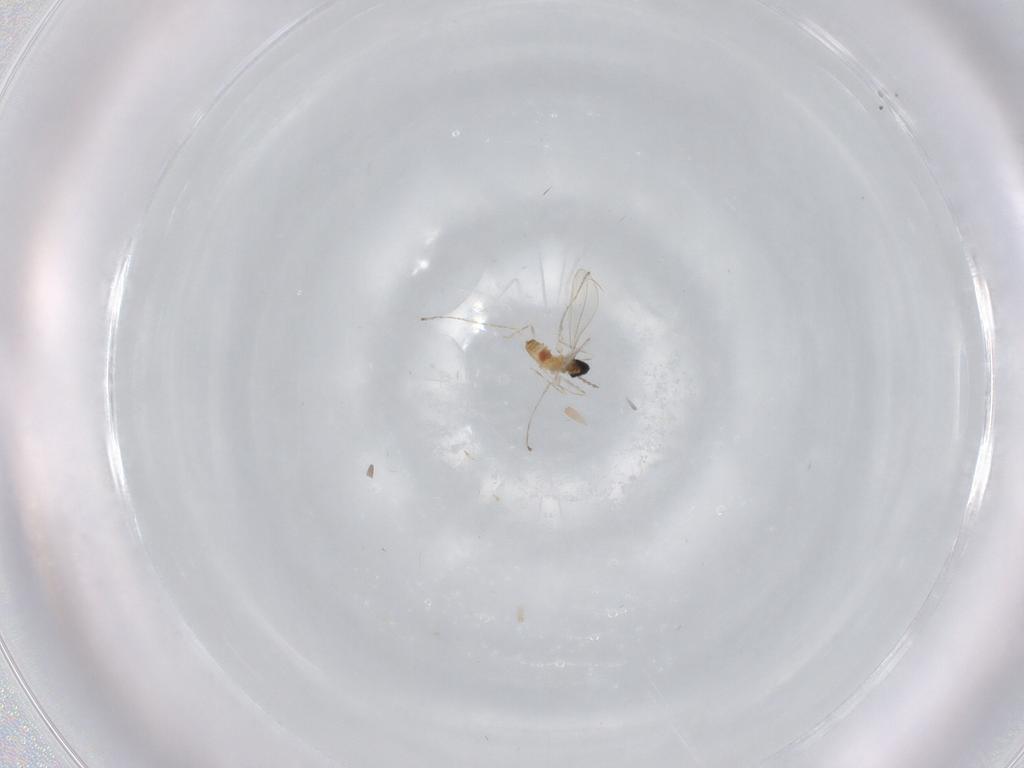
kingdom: Animalia
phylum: Arthropoda
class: Insecta
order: Diptera
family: Cecidomyiidae
